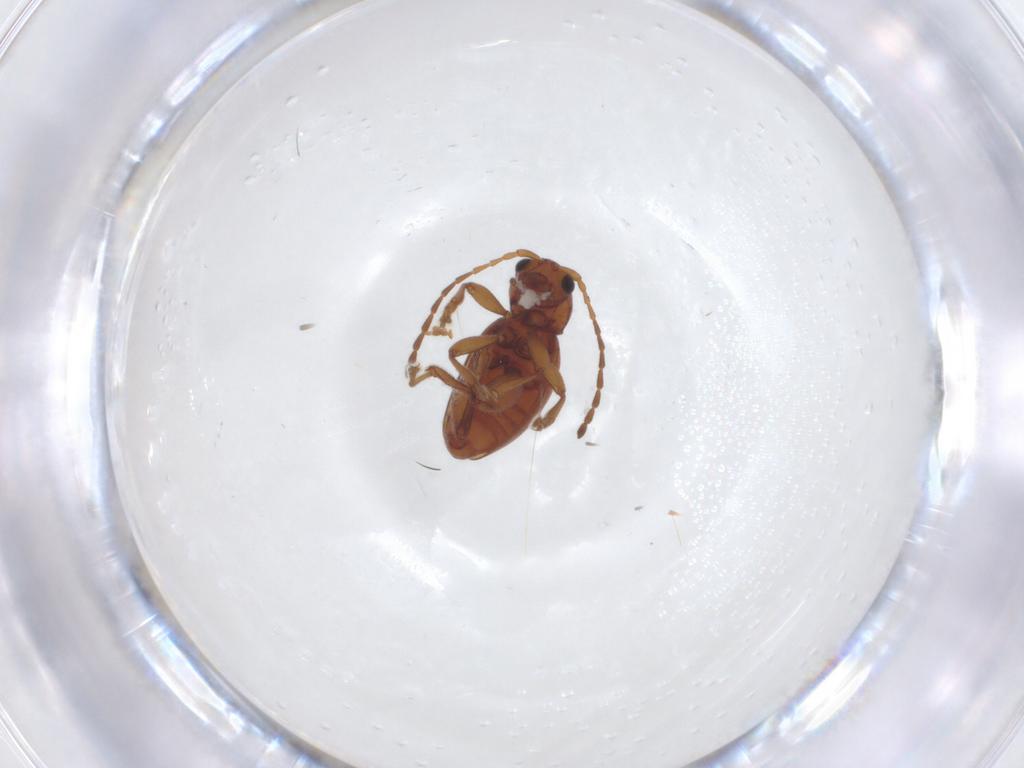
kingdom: Animalia
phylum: Arthropoda
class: Insecta
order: Coleoptera
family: Chrysomelidae
